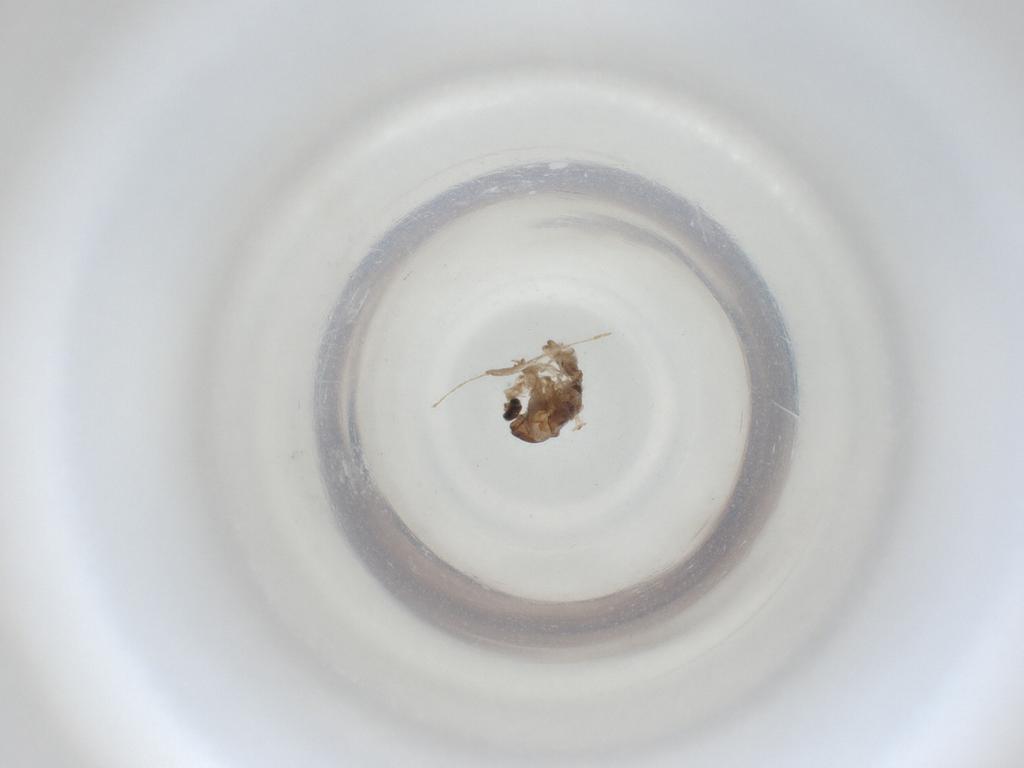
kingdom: Animalia
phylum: Arthropoda
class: Insecta
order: Diptera
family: Cecidomyiidae
